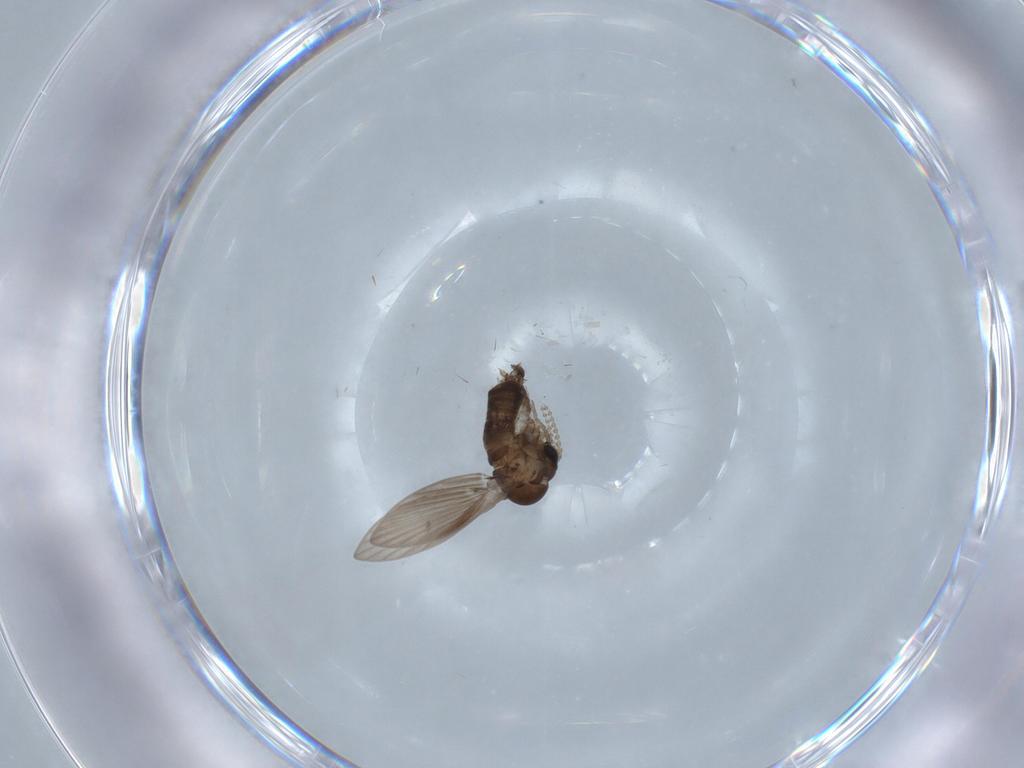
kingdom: Animalia
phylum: Arthropoda
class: Insecta
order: Diptera
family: Psychodidae
